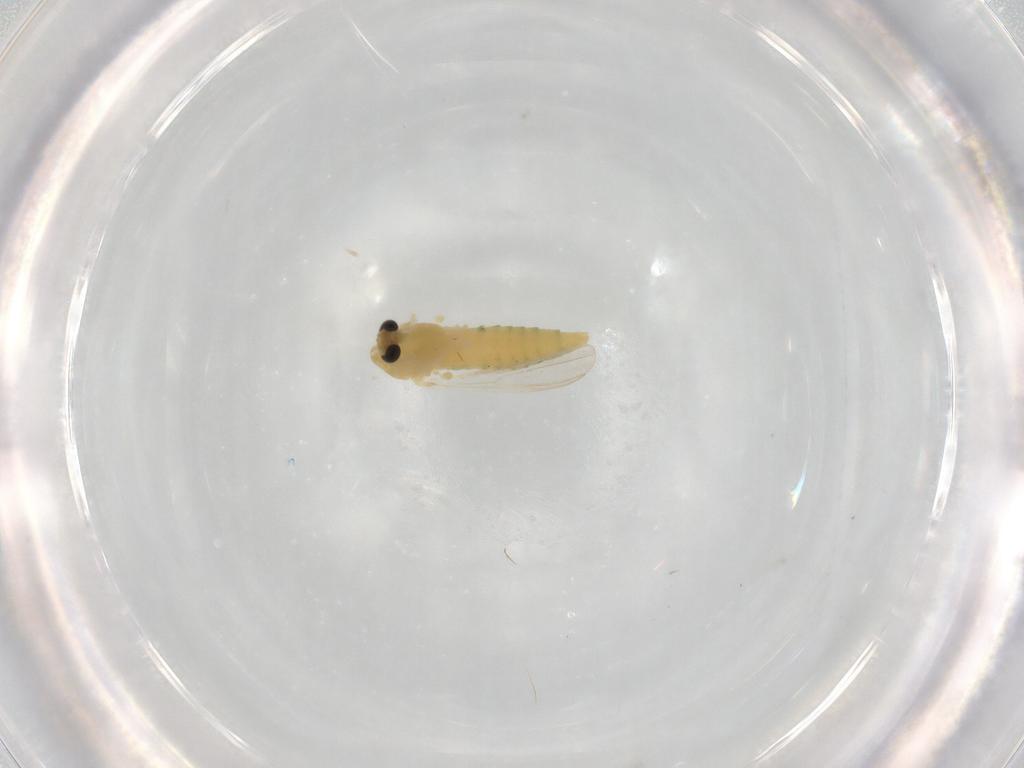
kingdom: Animalia
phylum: Arthropoda
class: Insecta
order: Diptera
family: Chironomidae
